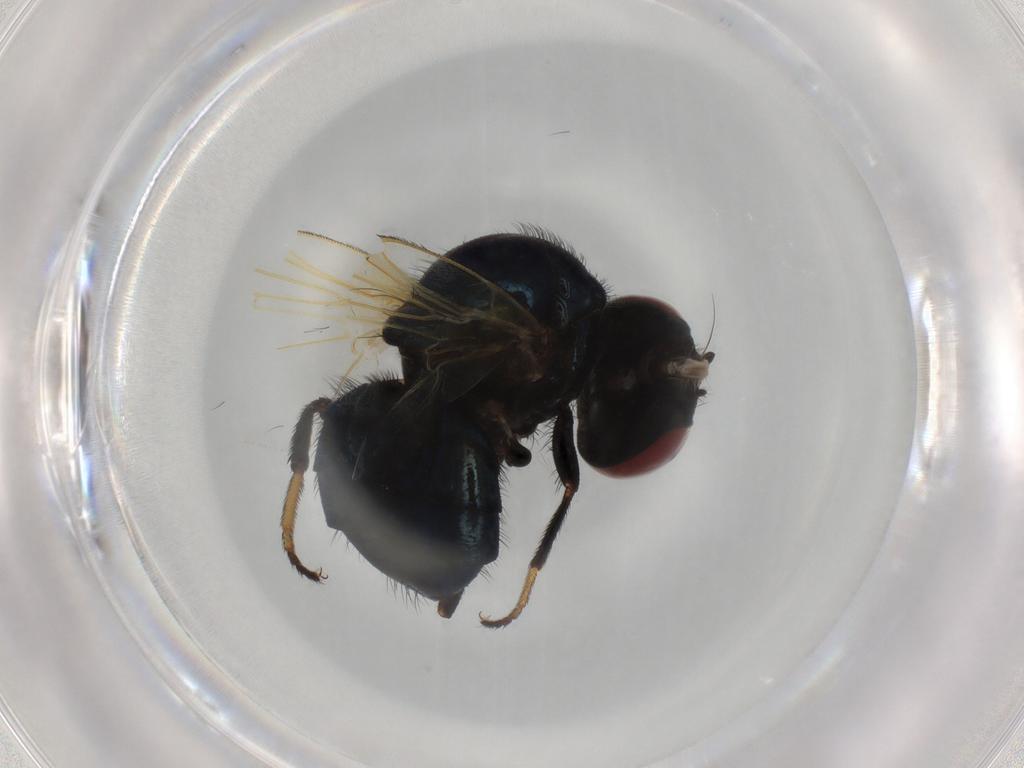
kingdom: Animalia
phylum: Arthropoda
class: Insecta
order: Diptera
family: Lonchaeidae
